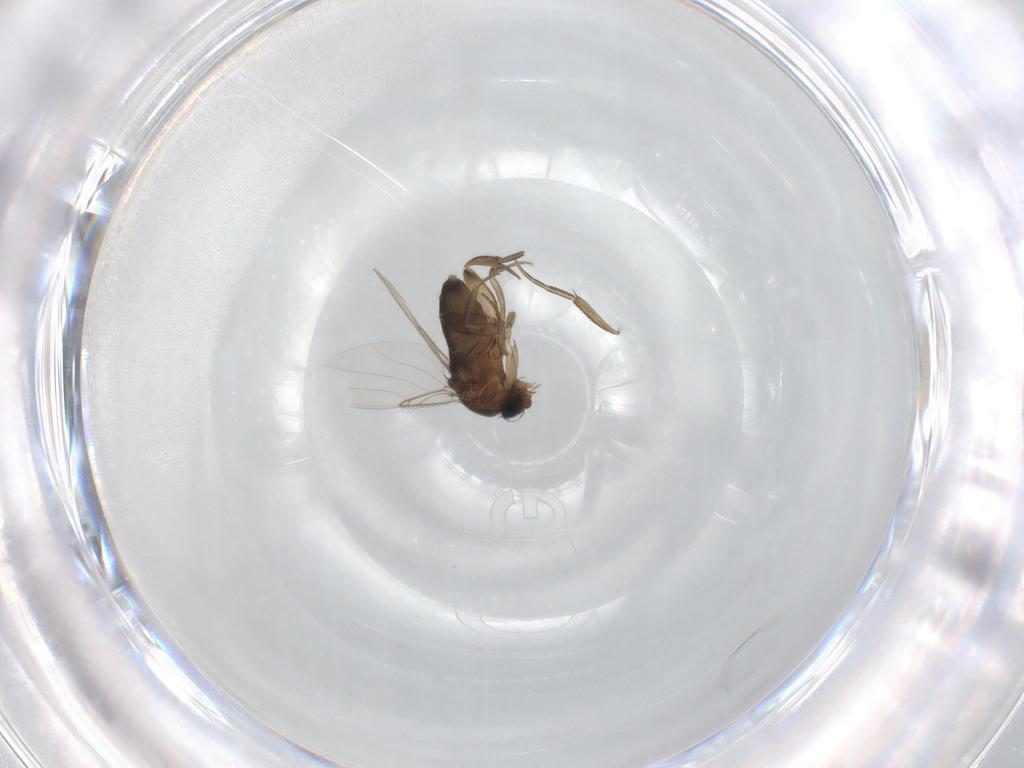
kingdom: Animalia
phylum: Arthropoda
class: Insecta
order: Diptera
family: Phoridae
